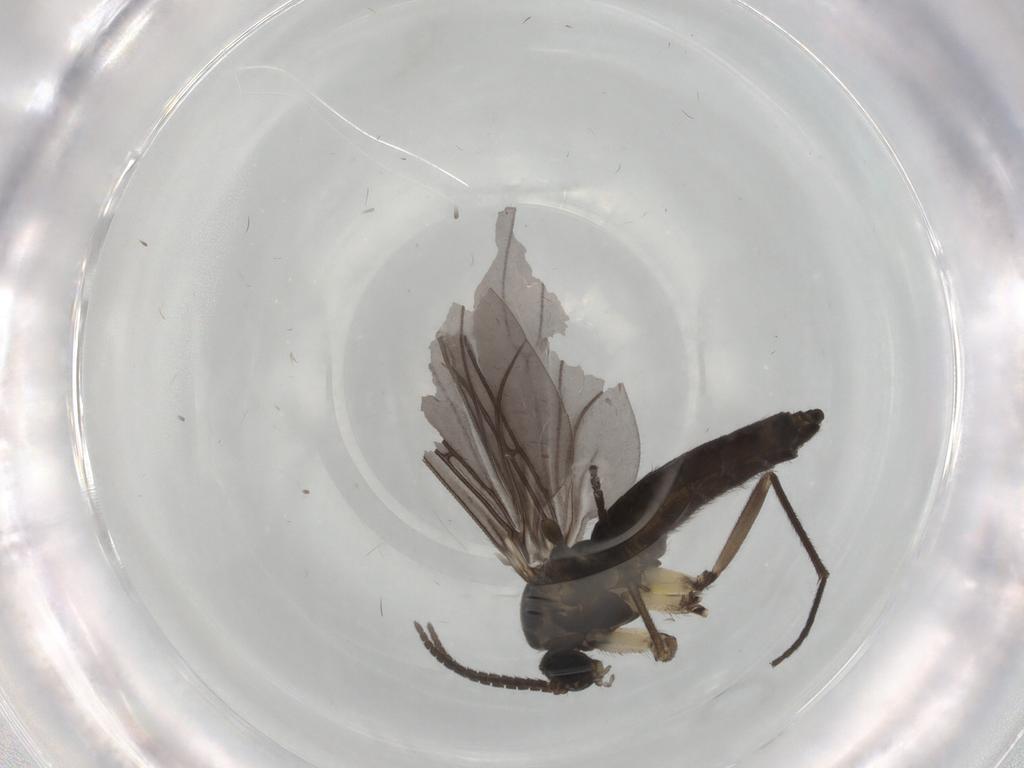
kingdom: Animalia
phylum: Arthropoda
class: Insecta
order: Diptera
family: Sciaridae
